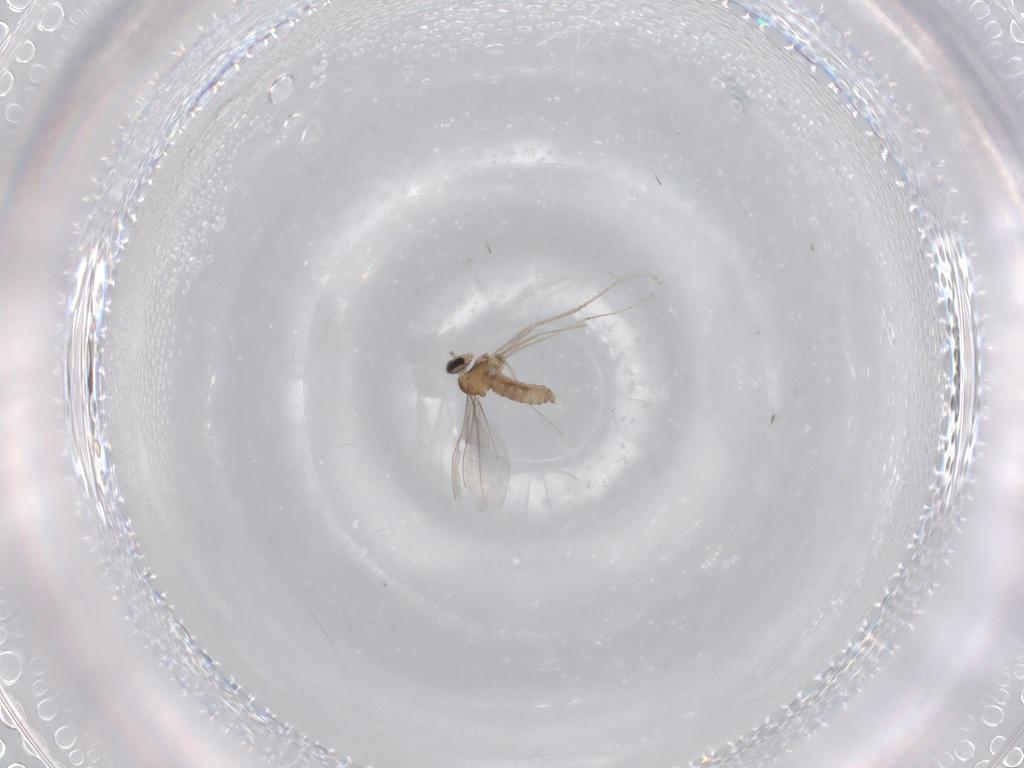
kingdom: Animalia
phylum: Arthropoda
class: Insecta
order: Diptera
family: Cecidomyiidae
